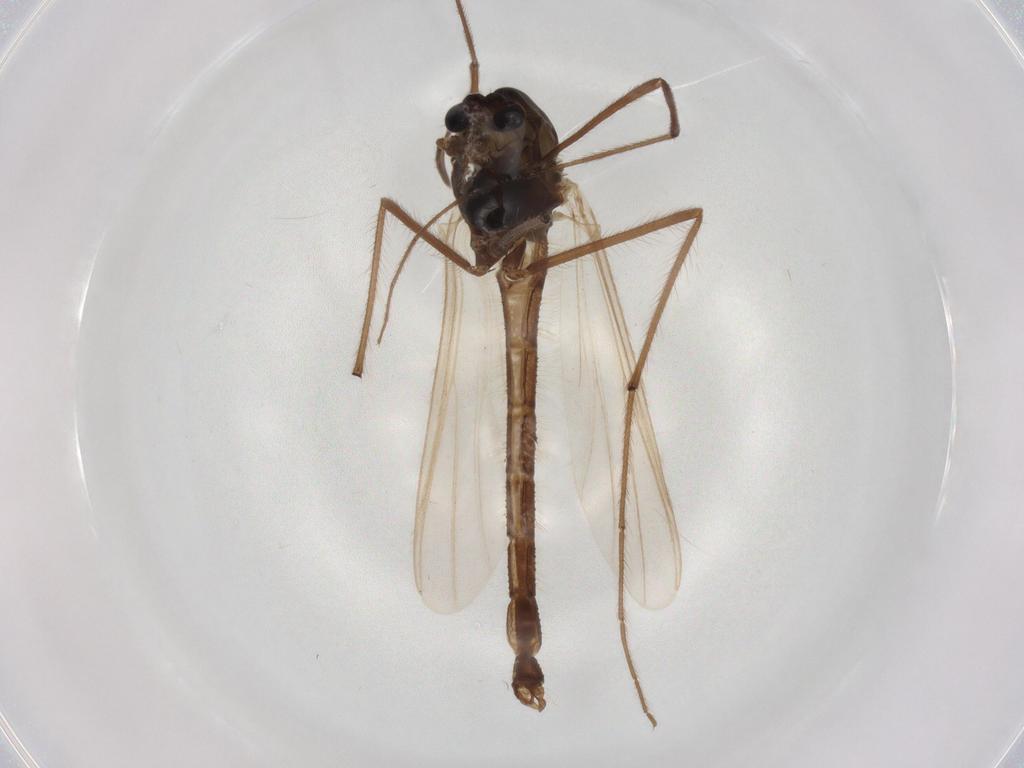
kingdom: Animalia
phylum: Arthropoda
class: Insecta
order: Diptera
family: Chironomidae
